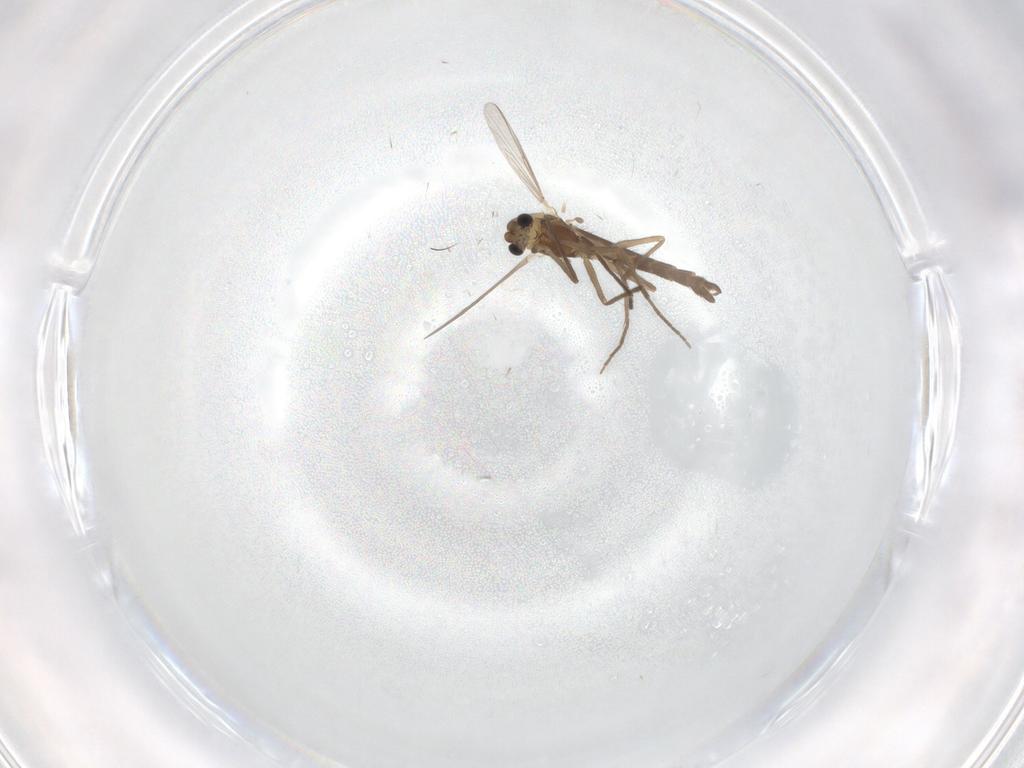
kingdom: Animalia
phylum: Arthropoda
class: Insecta
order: Diptera
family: Chironomidae
